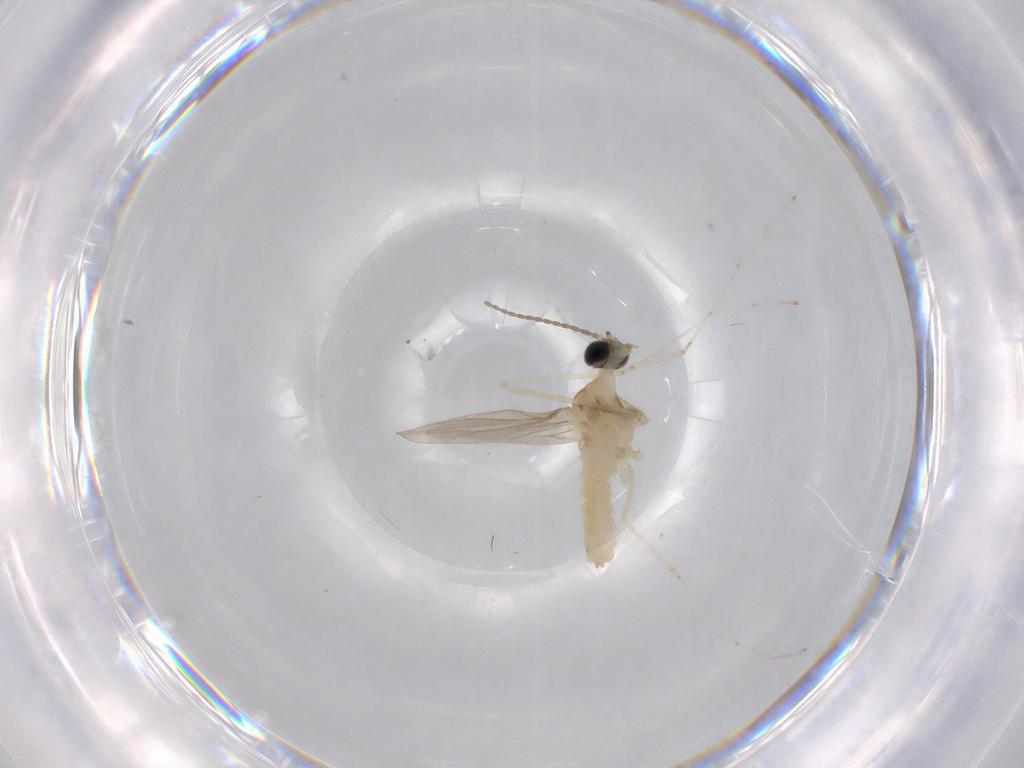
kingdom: Animalia
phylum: Arthropoda
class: Insecta
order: Diptera
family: Cecidomyiidae
